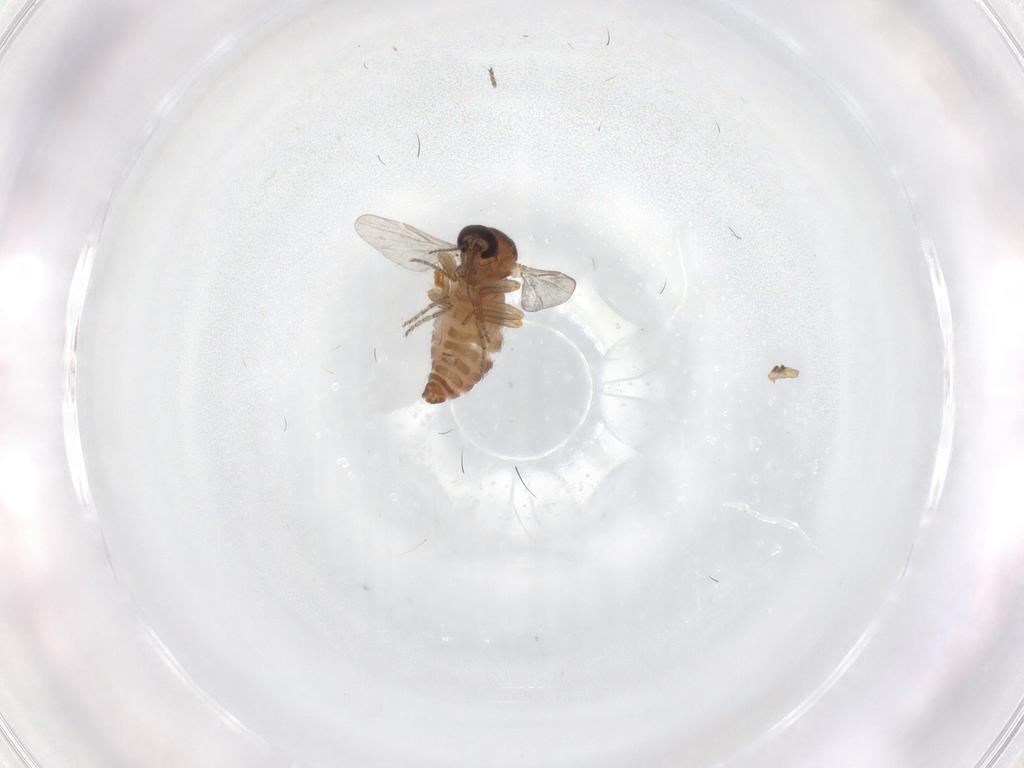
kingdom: Animalia
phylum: Arthropoda
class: Insecta
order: Diptera
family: Ceratopogonidae
